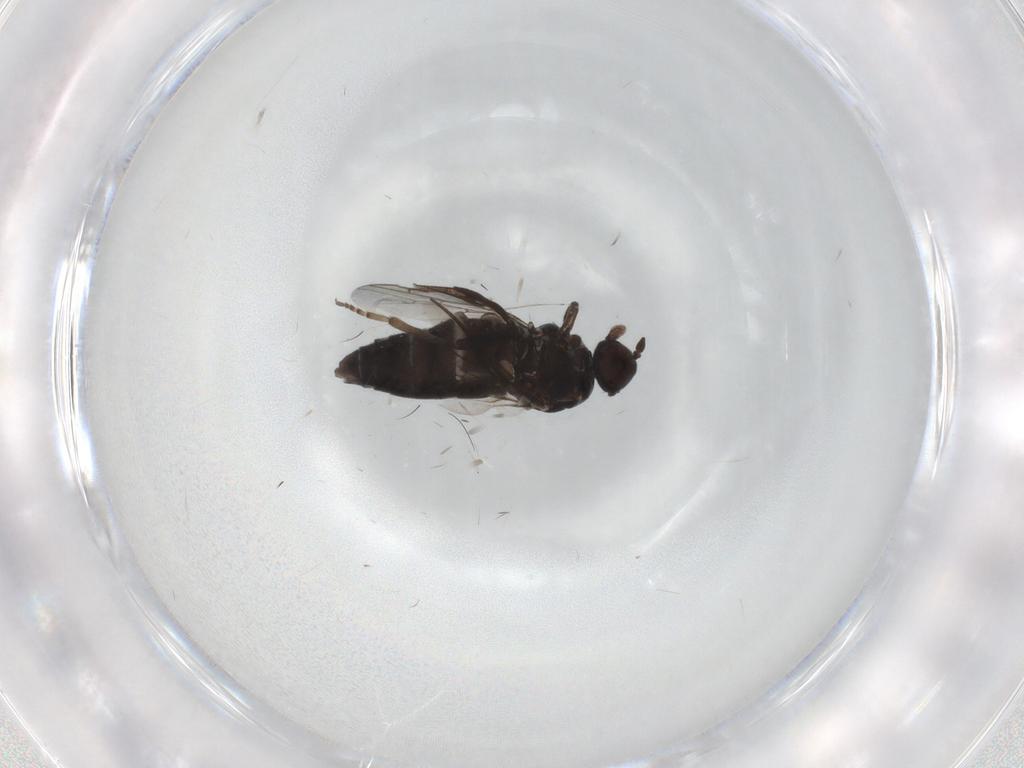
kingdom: Animalia
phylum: Arthropoda
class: Insecta
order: Diptera
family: Scenopinidae
